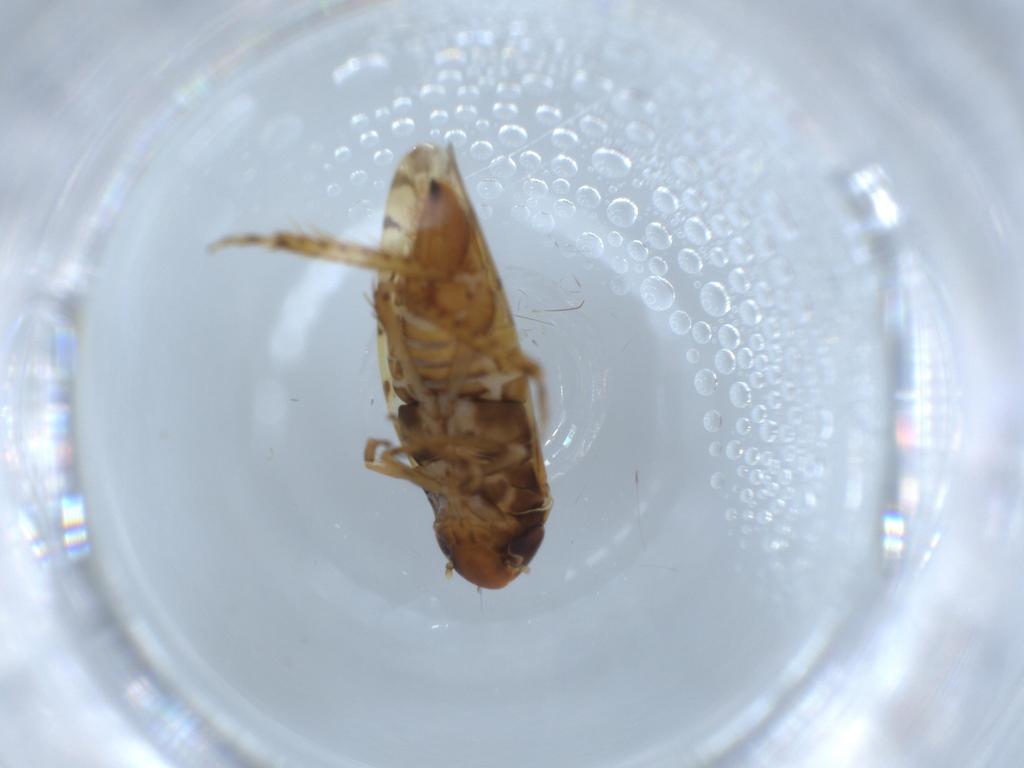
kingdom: Animalia
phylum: Arthropoda
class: Insecta
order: Hemiptera
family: Cicadellidae
